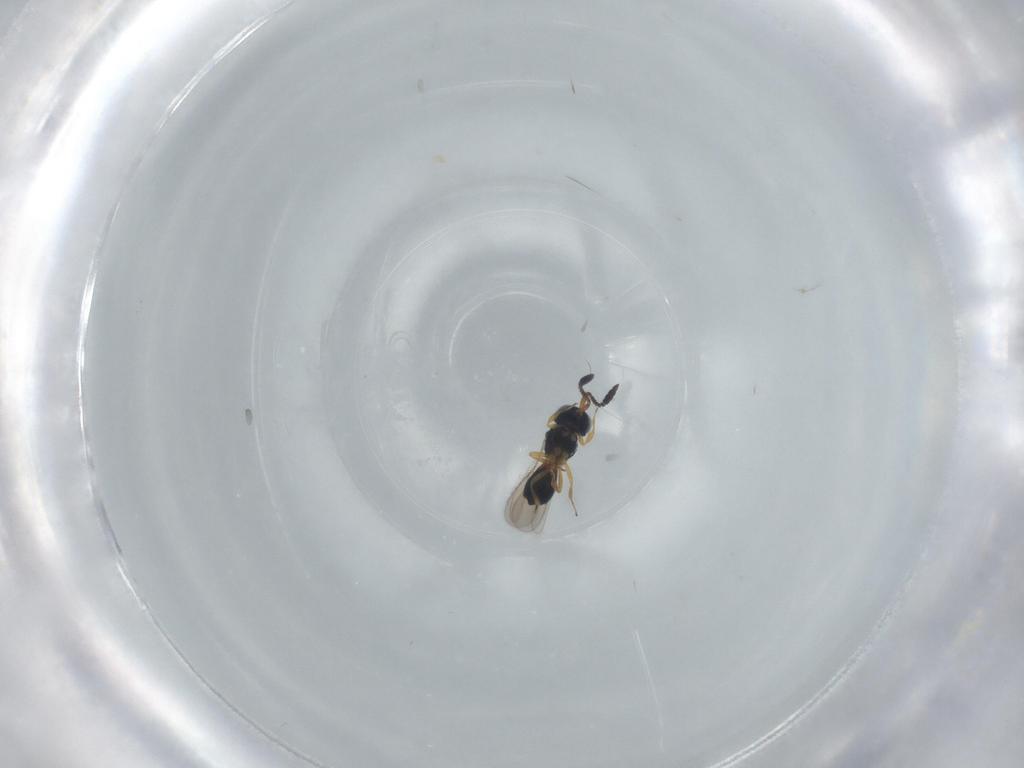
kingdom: Animalia
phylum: Arthropoda
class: Insecta
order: Hymenoptera
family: Scelionidae
